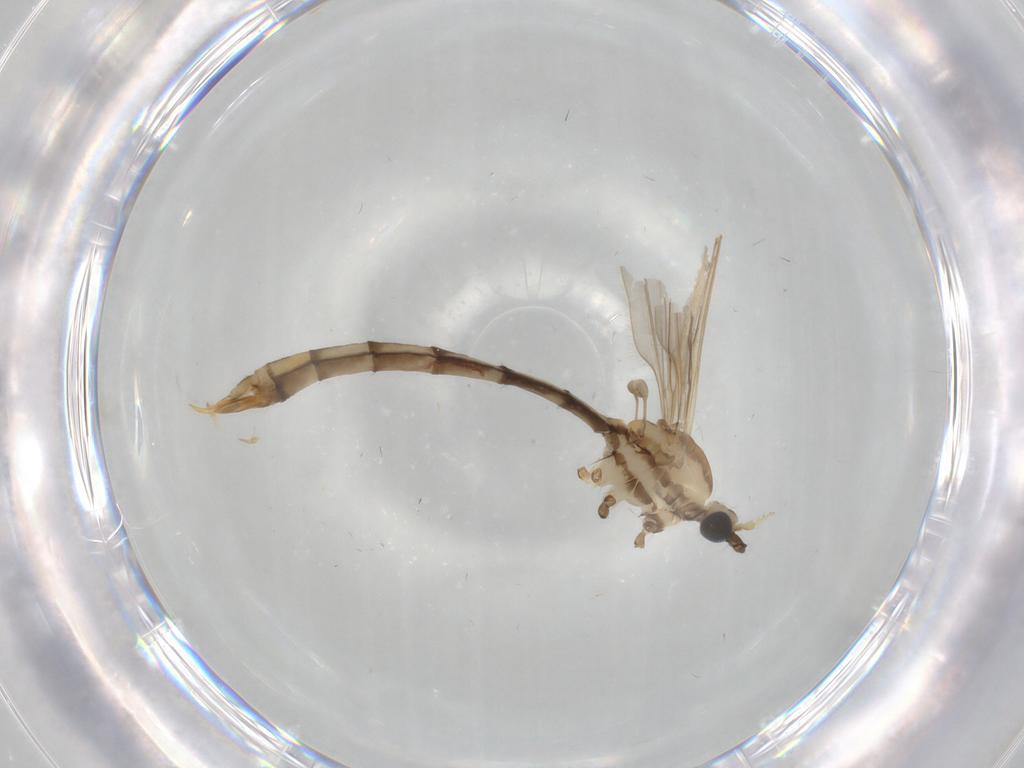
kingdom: Animalia
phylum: Arthropoda
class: Insecta
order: Diptera
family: Cecidomyiidae
